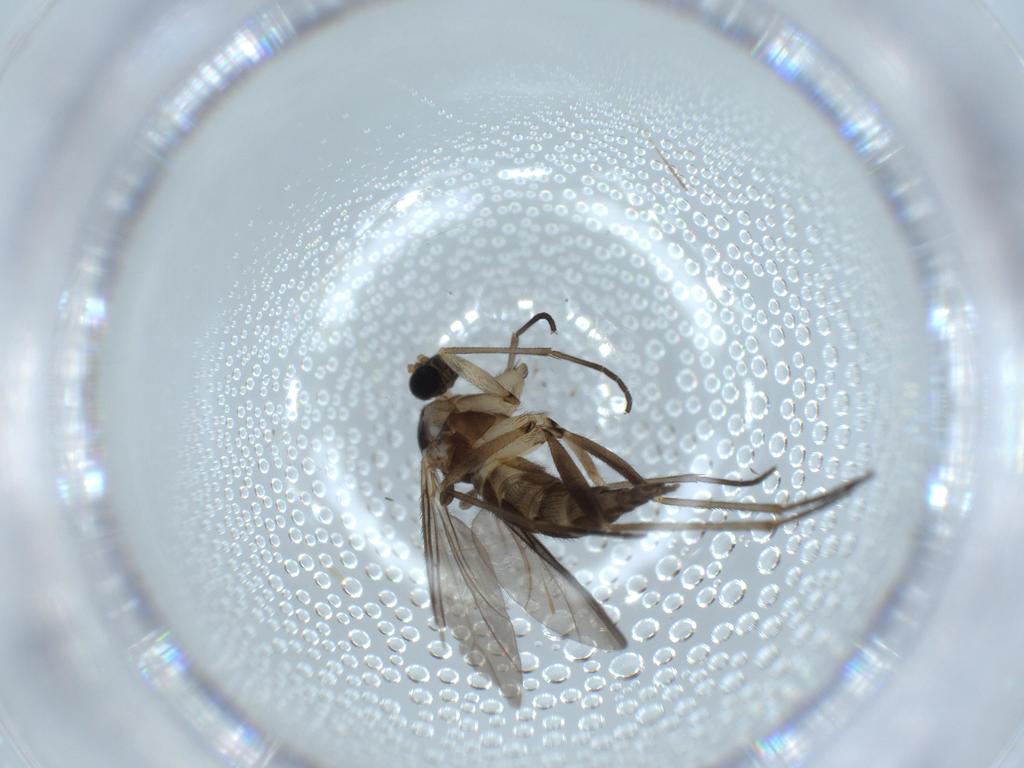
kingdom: Animalia
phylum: Arthropoda
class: Insecta
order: Diptera
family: Sciaridae
